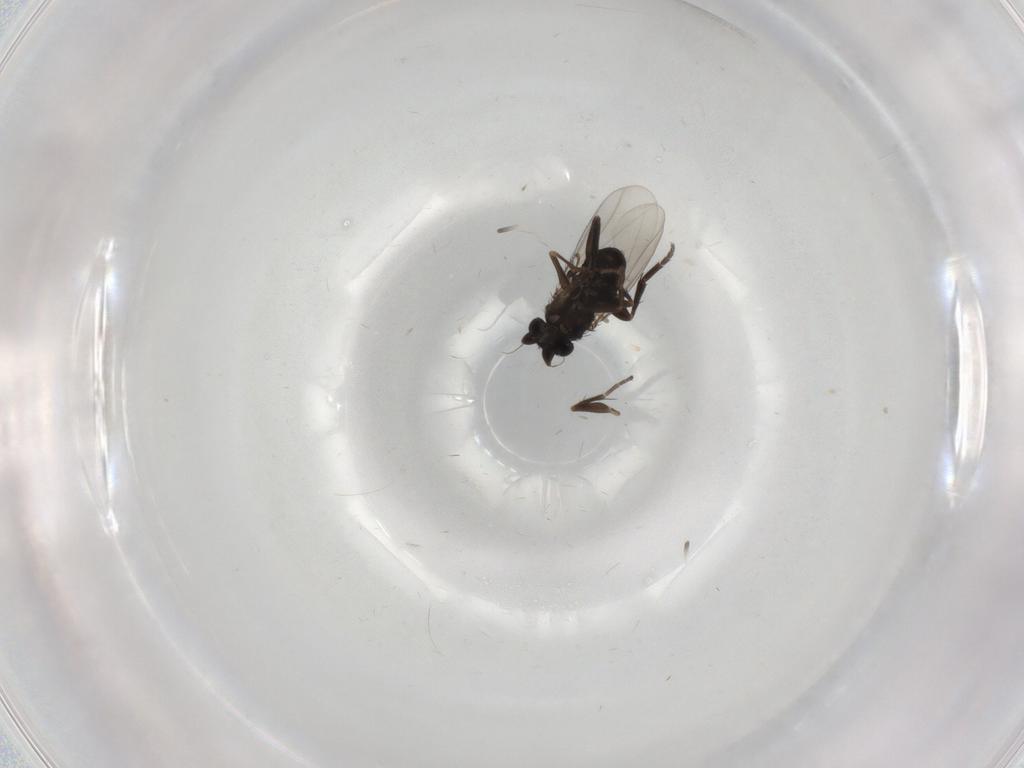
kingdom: Animalia
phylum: Arthropoda
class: Insecta
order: Diptera
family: Phoridae
